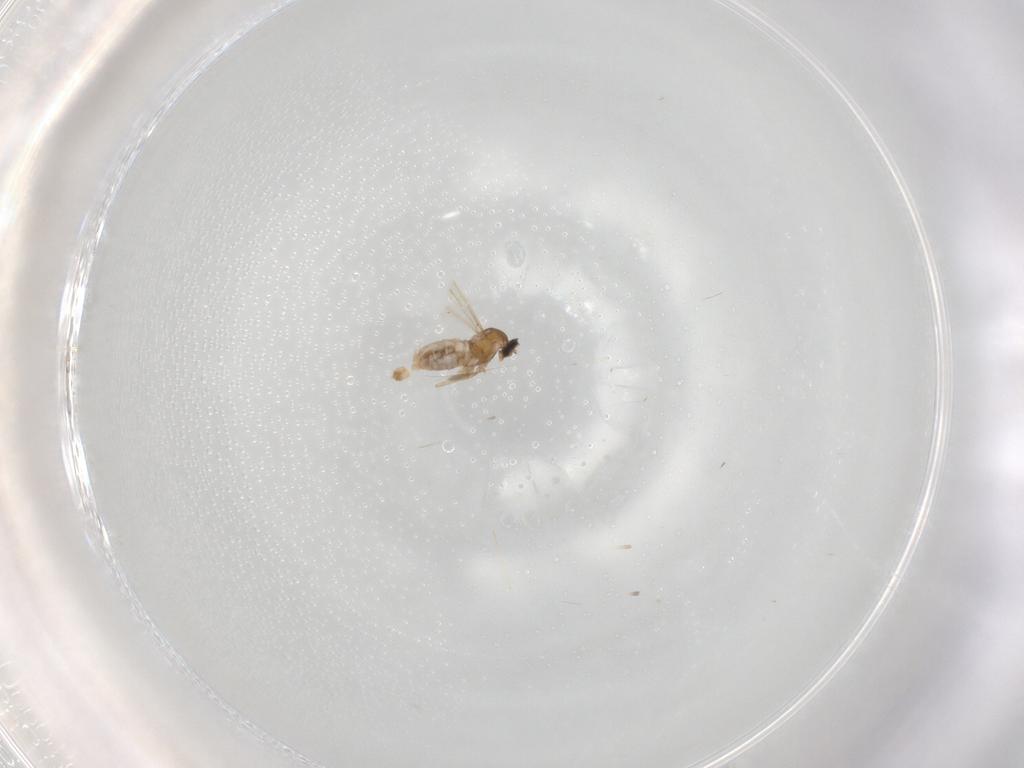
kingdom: Animalia
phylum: Arthropoda
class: Insecta
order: Diptera
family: Cecidomyiidae
